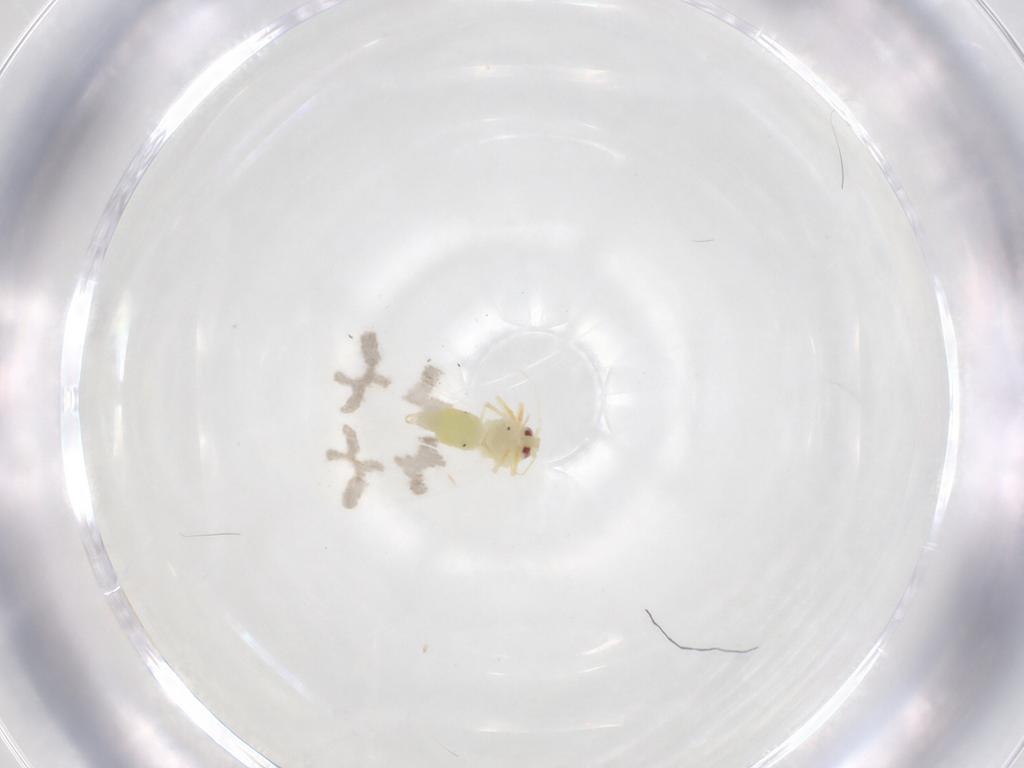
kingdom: Animalia
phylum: Arthropoda
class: Insecta
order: Hemiptera
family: Aleyrodidae
